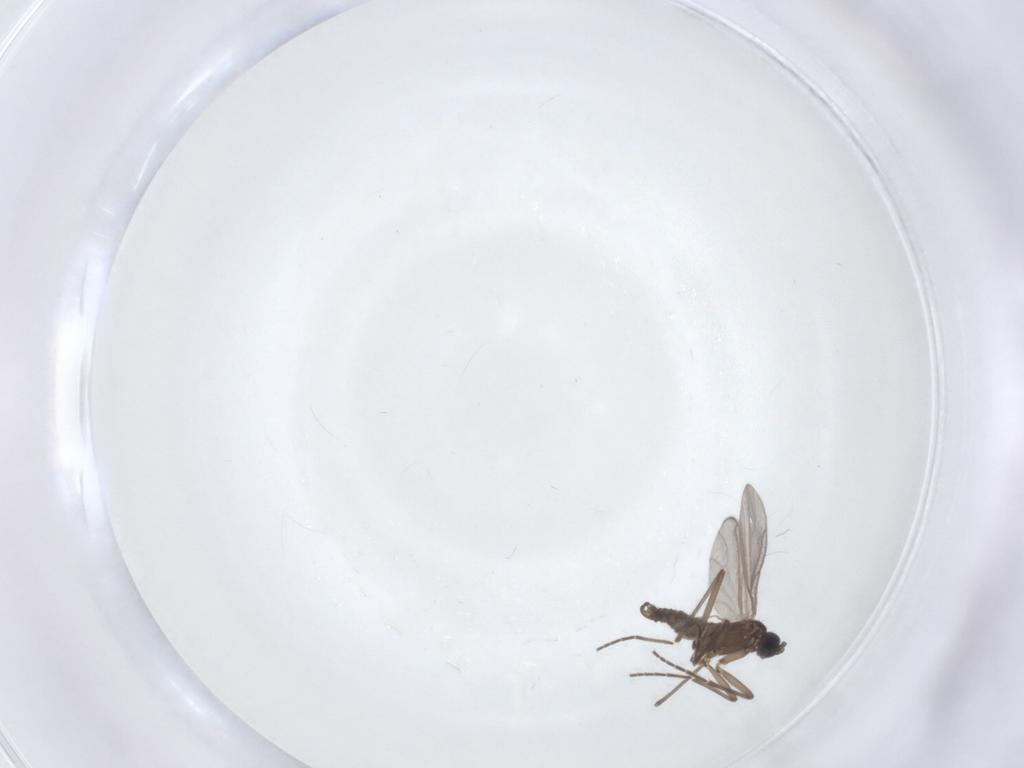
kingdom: Animalia
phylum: Arthropoda
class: Insecta
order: Diptera
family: Sciaridae
